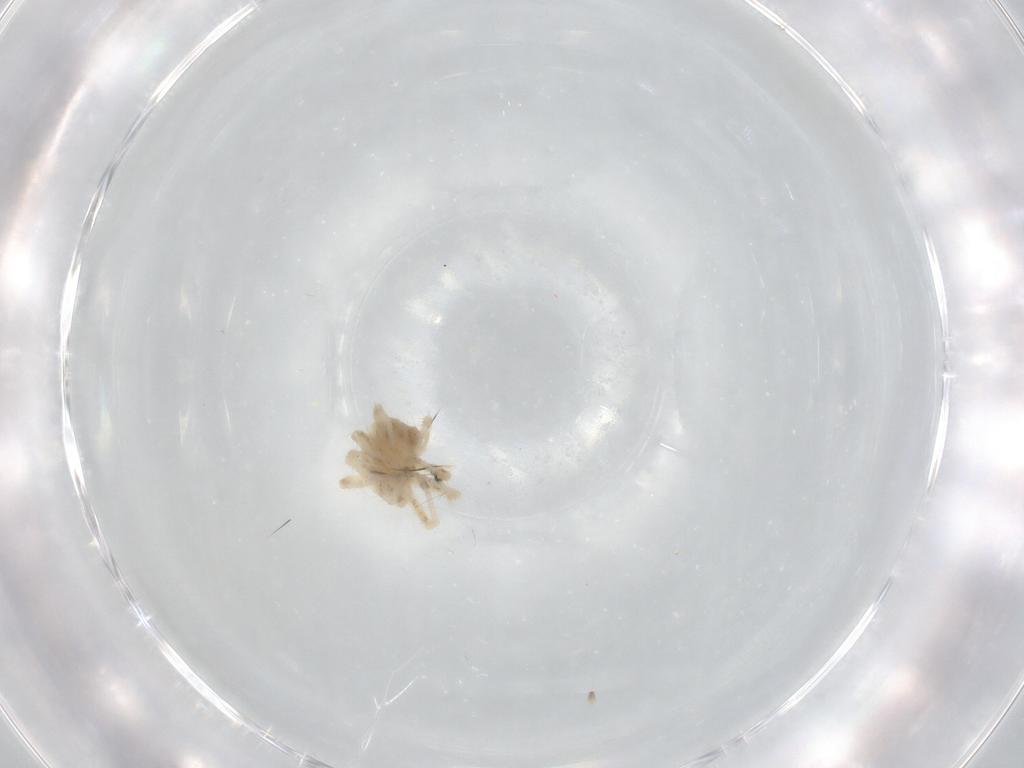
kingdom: Animalia
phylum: Arthropoda
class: Arachnida
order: Trombidiformes
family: Anystidae
